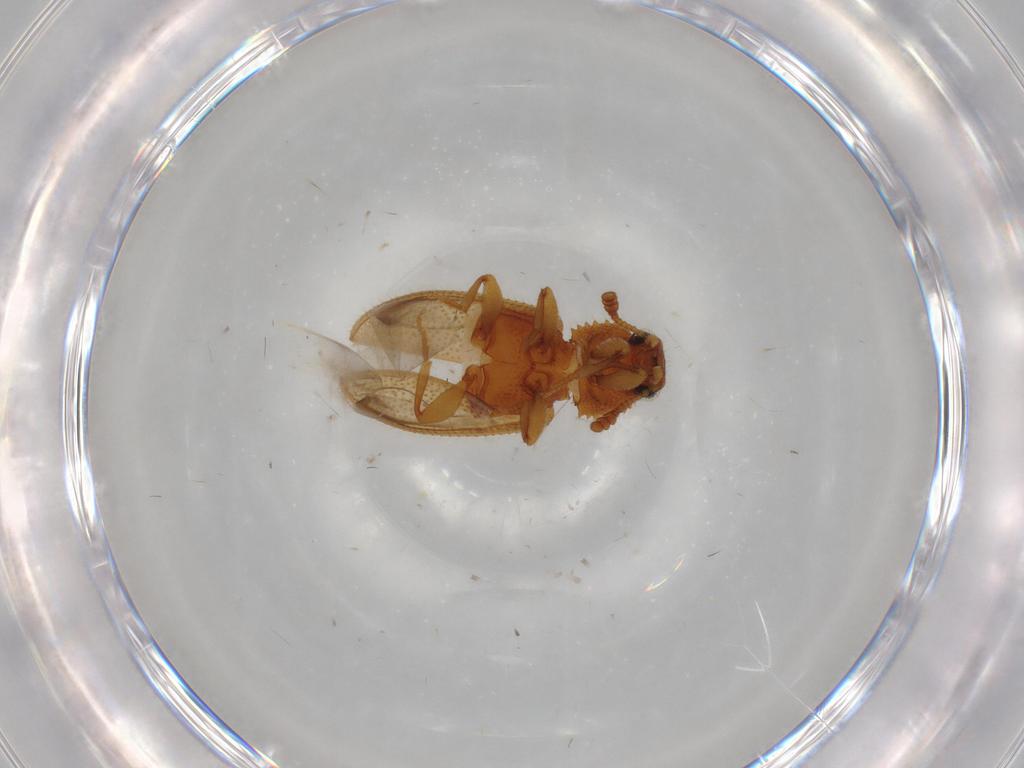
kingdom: Animalia
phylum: Arthropoda
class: Insecta
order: Coleoptera
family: Tenebrionidae
